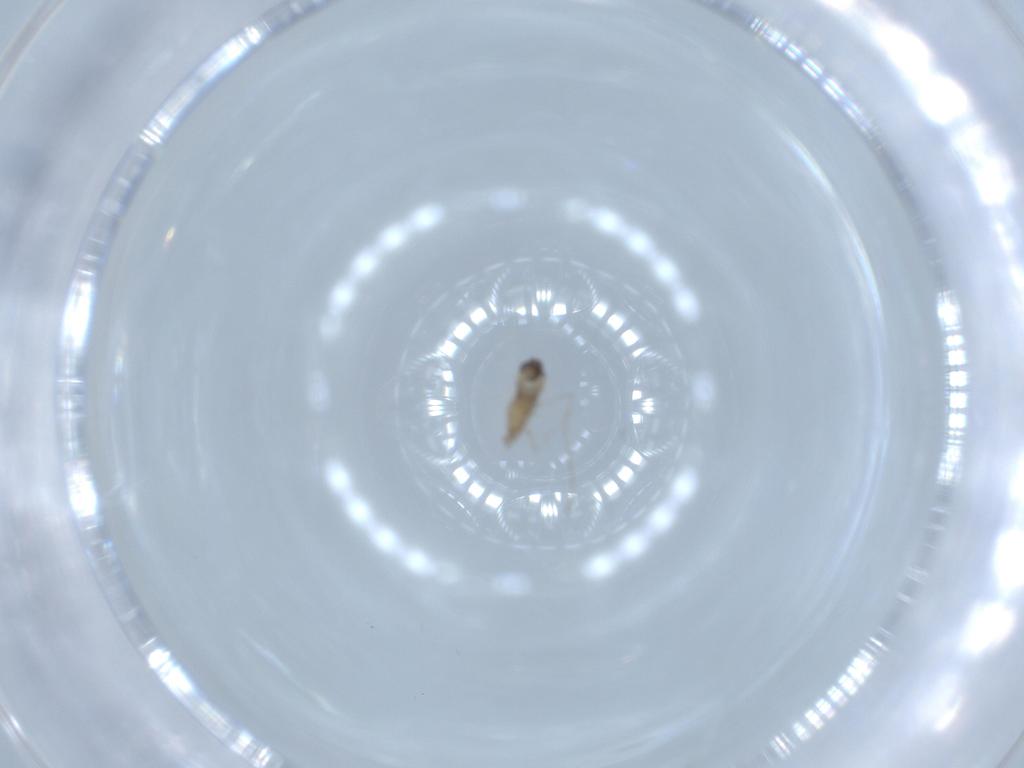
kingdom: Animalia
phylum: Arthropoda
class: Insecta
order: Diptera
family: Cecidomyiidae
